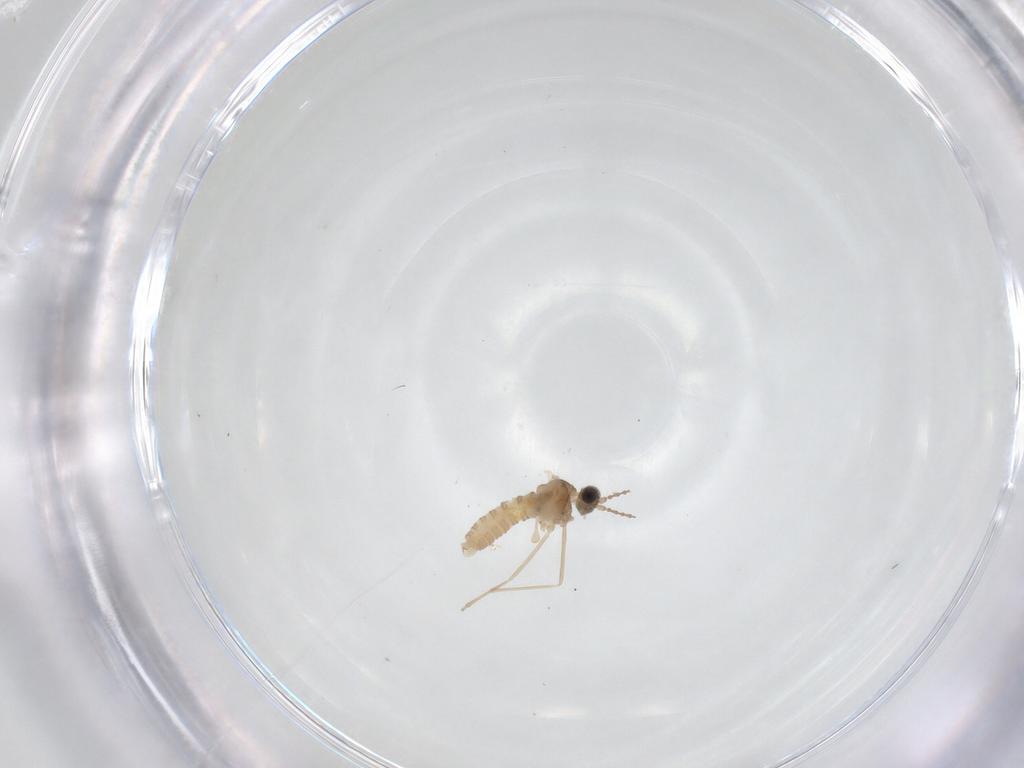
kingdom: Animalia
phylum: Arthropoda
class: Insecta
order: Diptera
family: Cecidomyiidae
